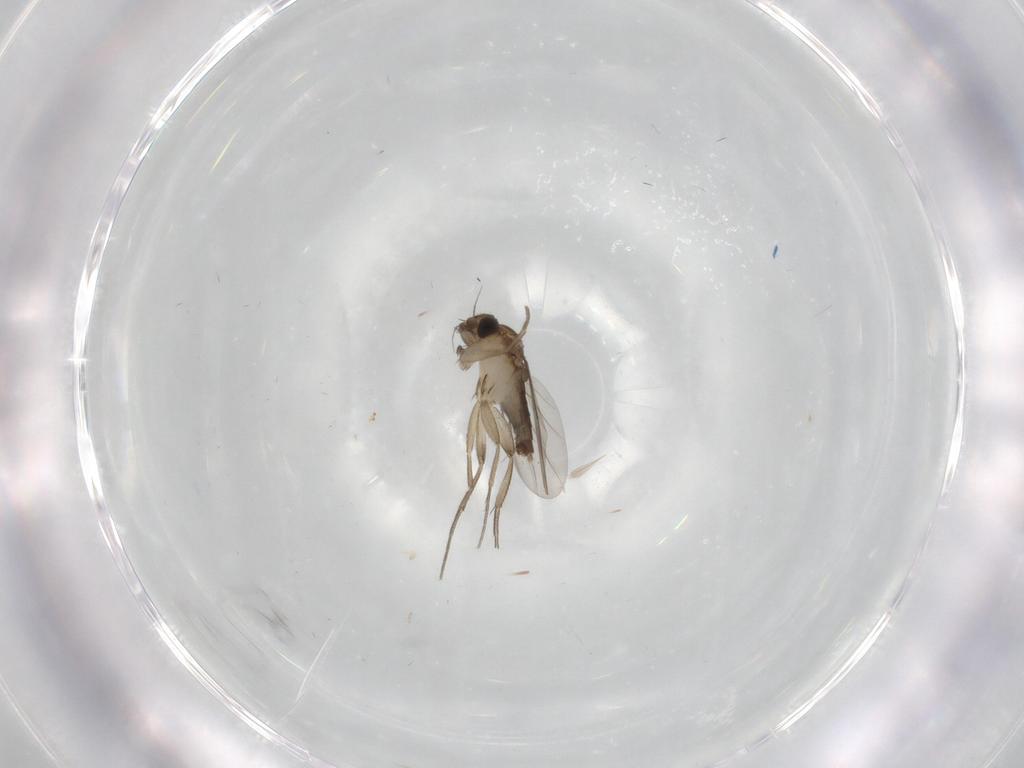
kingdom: Animalia
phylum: Arthropoda
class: Insecta
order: Diptera
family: Phoridae
